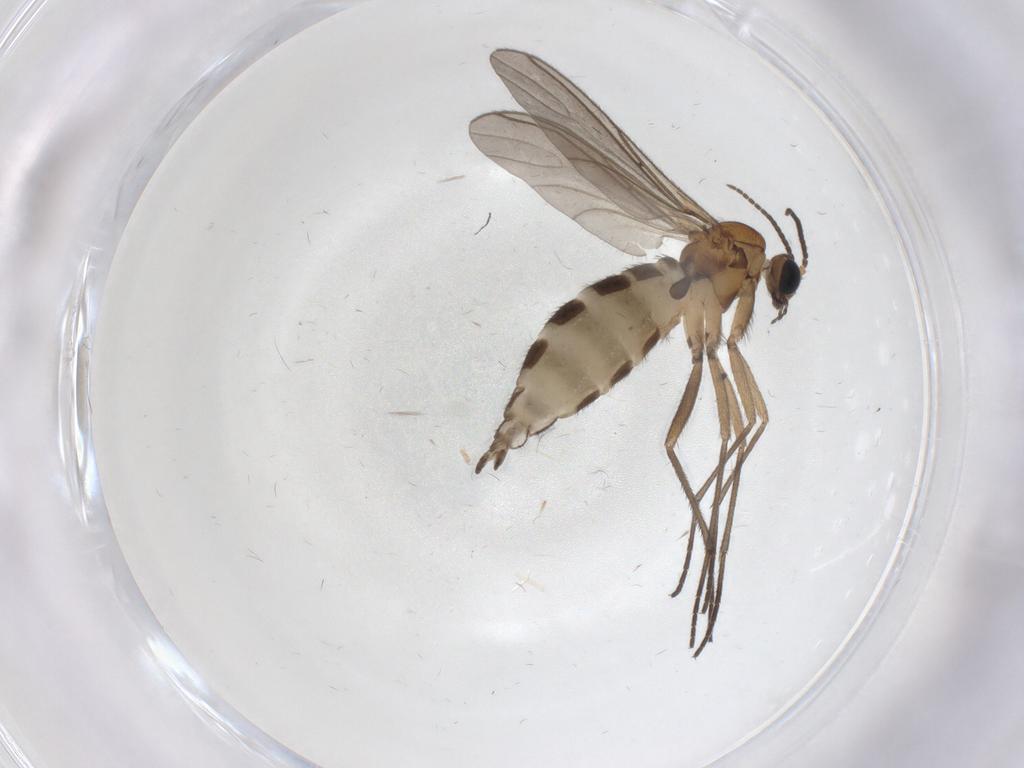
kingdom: Animalia
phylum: Arthropoda
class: Insecta
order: Diptera
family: Sciaridae
